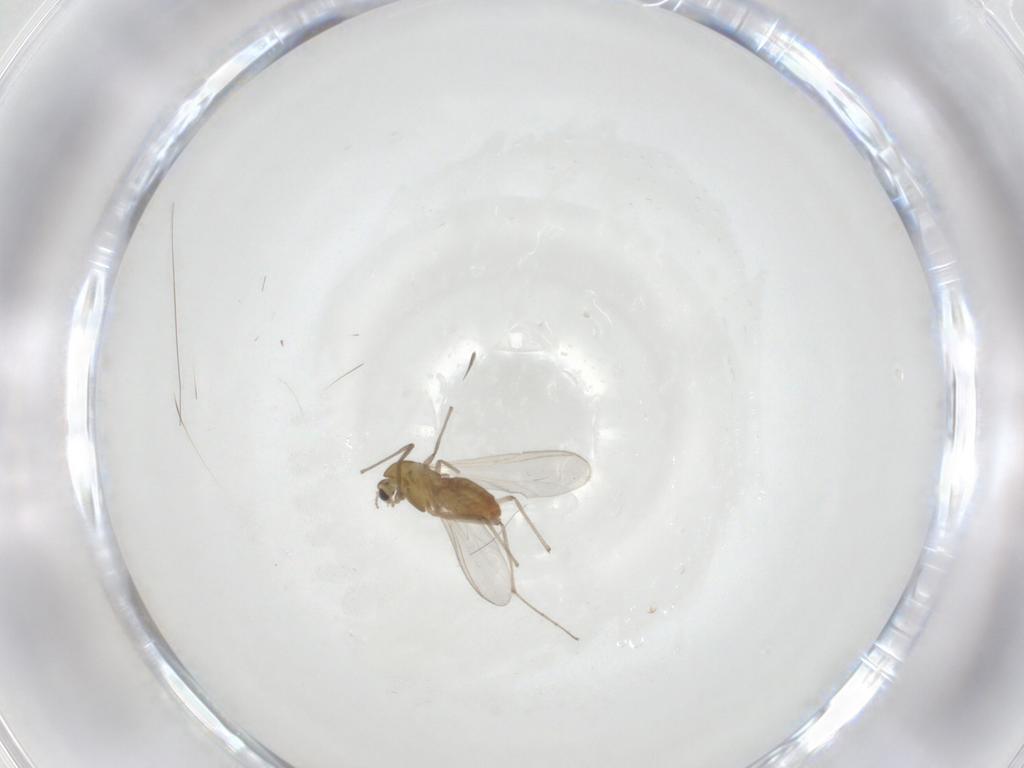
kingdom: Animalia
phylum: Arthropoda
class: Insecta
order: Diptera
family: Chironomidae
